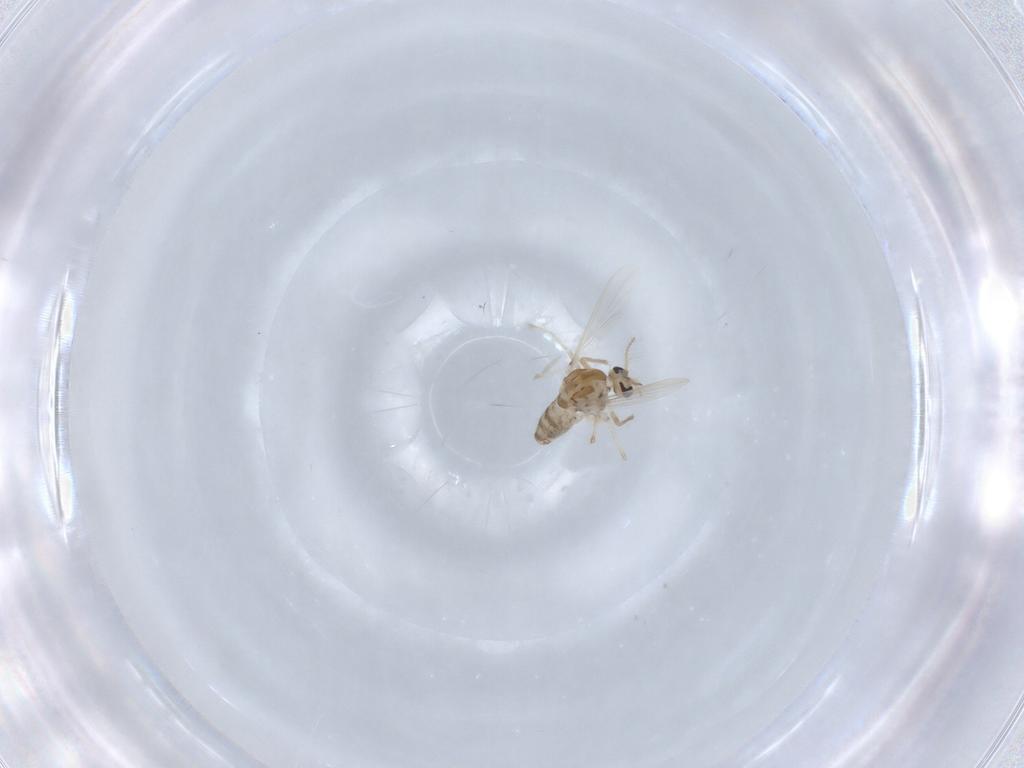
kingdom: Animalia
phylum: Arthropoda
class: Insecta
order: Diptera
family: Chironomidae
